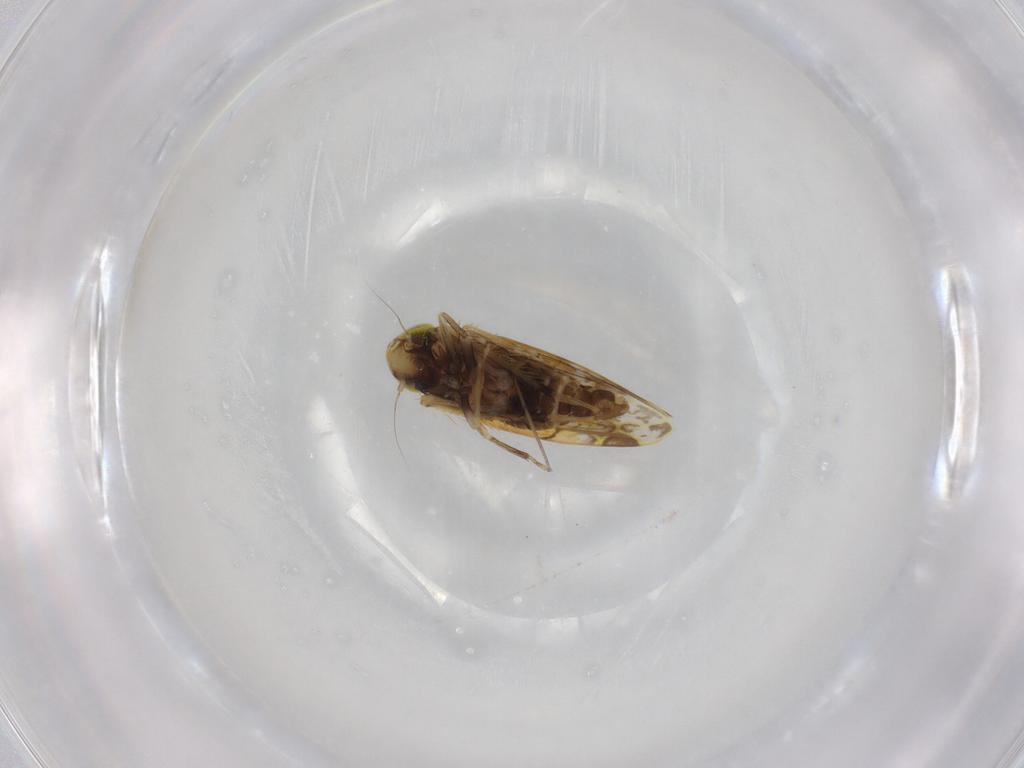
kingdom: Animalia
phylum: Arthropoda
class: Insecta
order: Hemiptera
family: Cicadellidae
